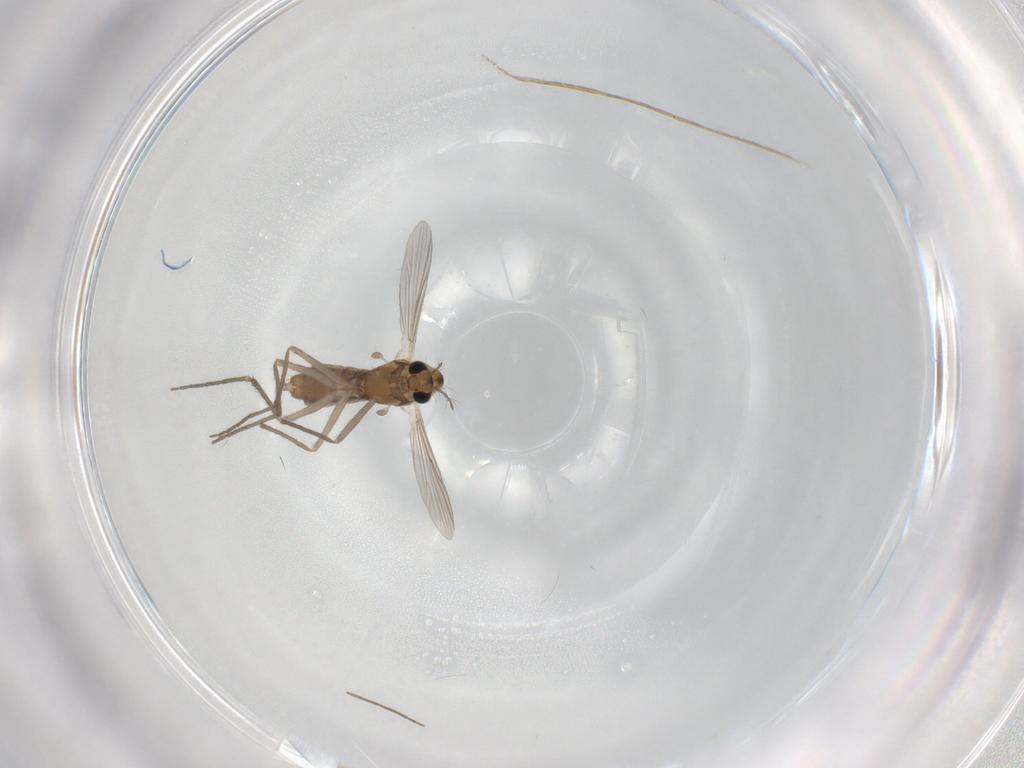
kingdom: Animalia
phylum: Arthropoda
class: Insecta
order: Diptera
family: Chironomidae
